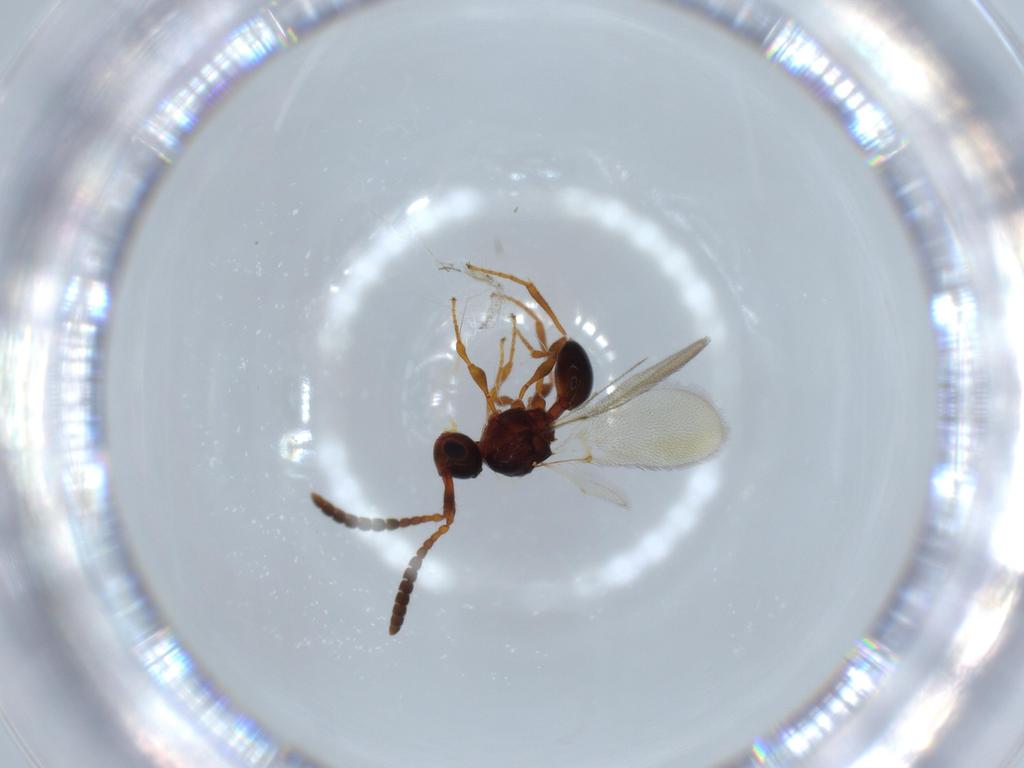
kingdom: Animalia
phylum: Arthropoda
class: Insecta
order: Hymenoptera
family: Diapriidae
